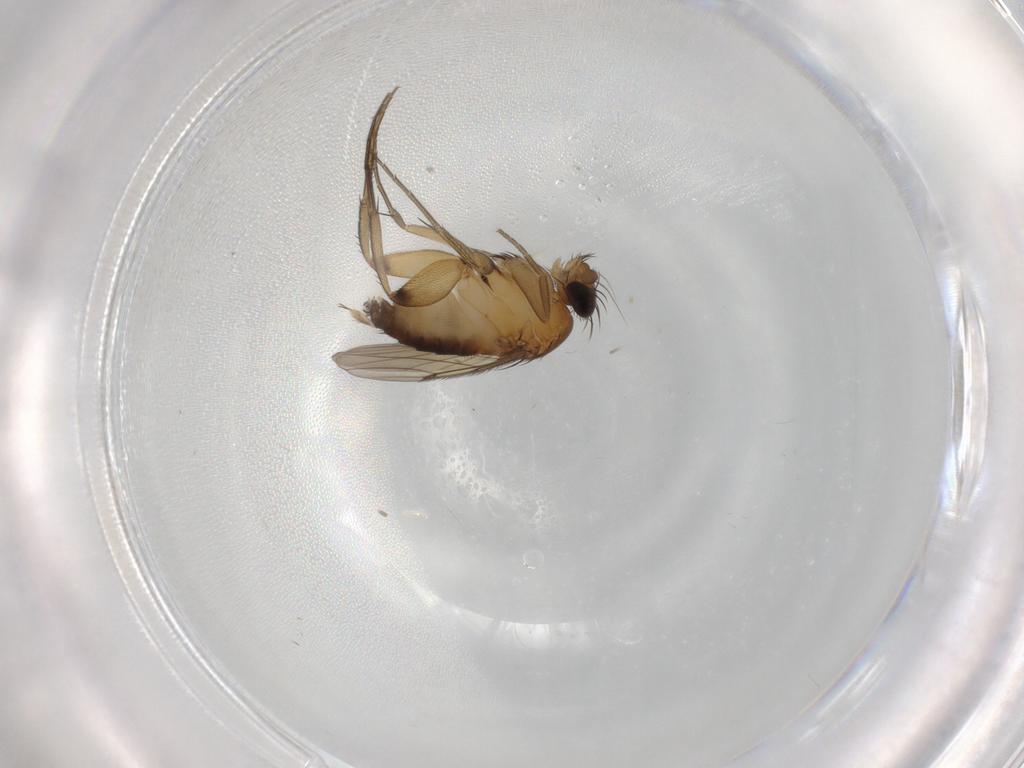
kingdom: Animalia
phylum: Arthropoda
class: Insecta
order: Diptera
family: Phoridae
